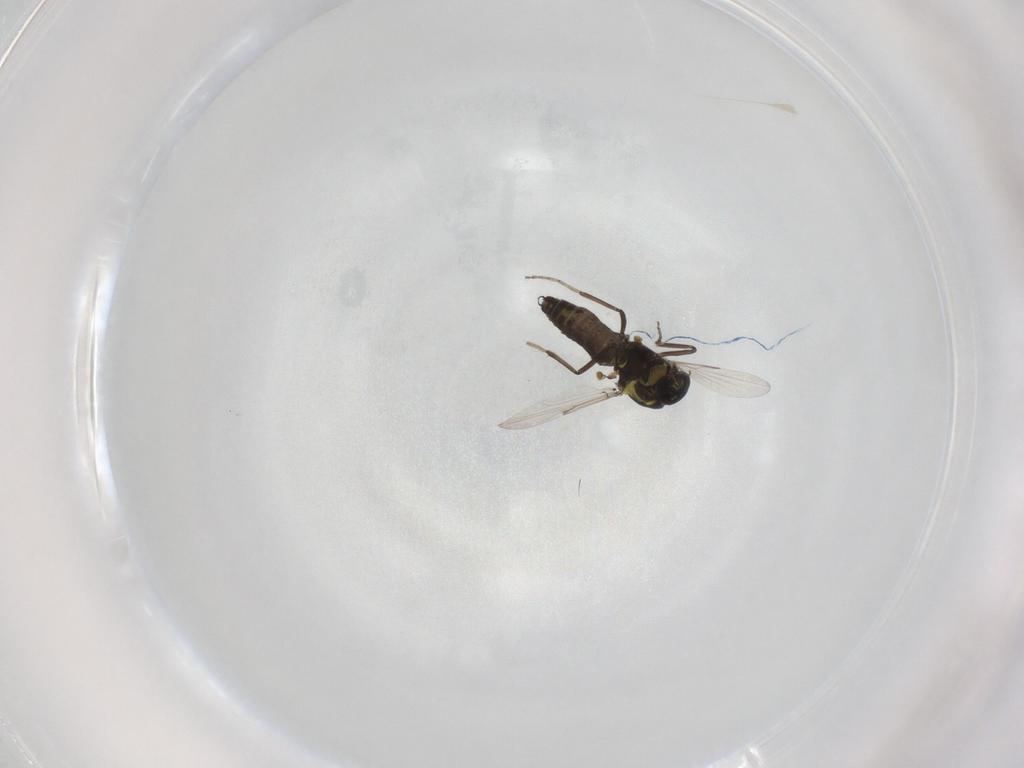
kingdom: Animalia
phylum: Arthropoda
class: Insecta
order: Diptera
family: Ceratopogonidae
